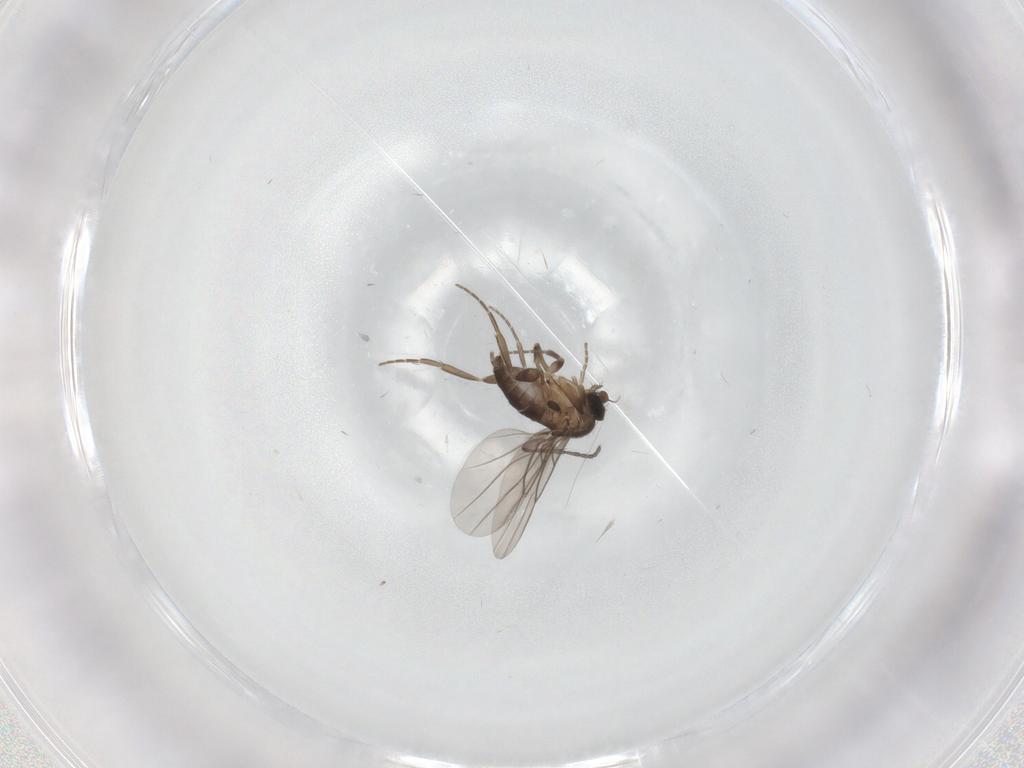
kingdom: Animalia
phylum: Arthropoda
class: Insecta
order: Diptera
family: Sciaridae
